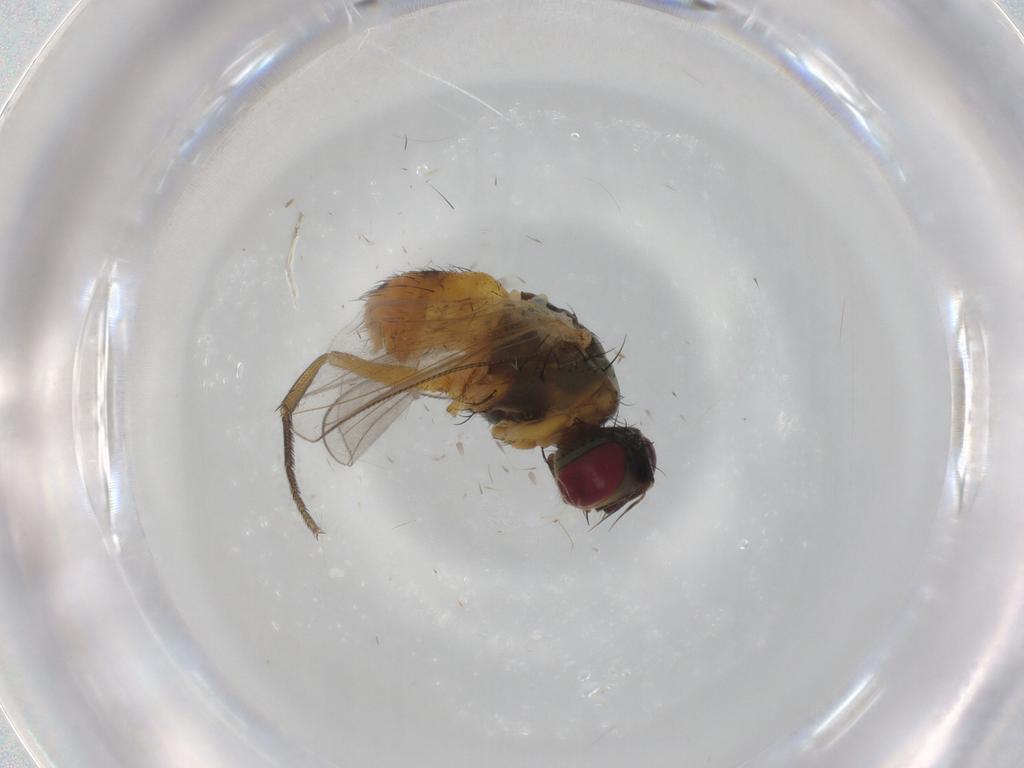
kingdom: Animalia
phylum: Arthropoda
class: Insecta
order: Diptera
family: Muscidae
